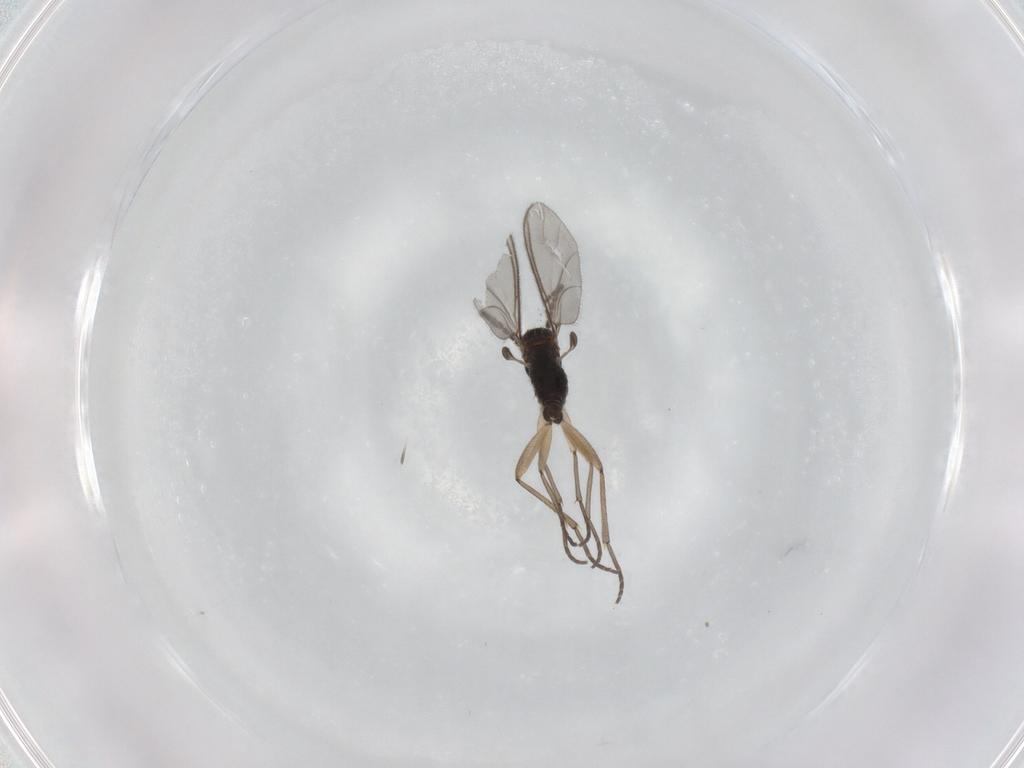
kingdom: Animalia
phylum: Arthropoda
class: Insecta
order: Diptera
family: Sciaridae
